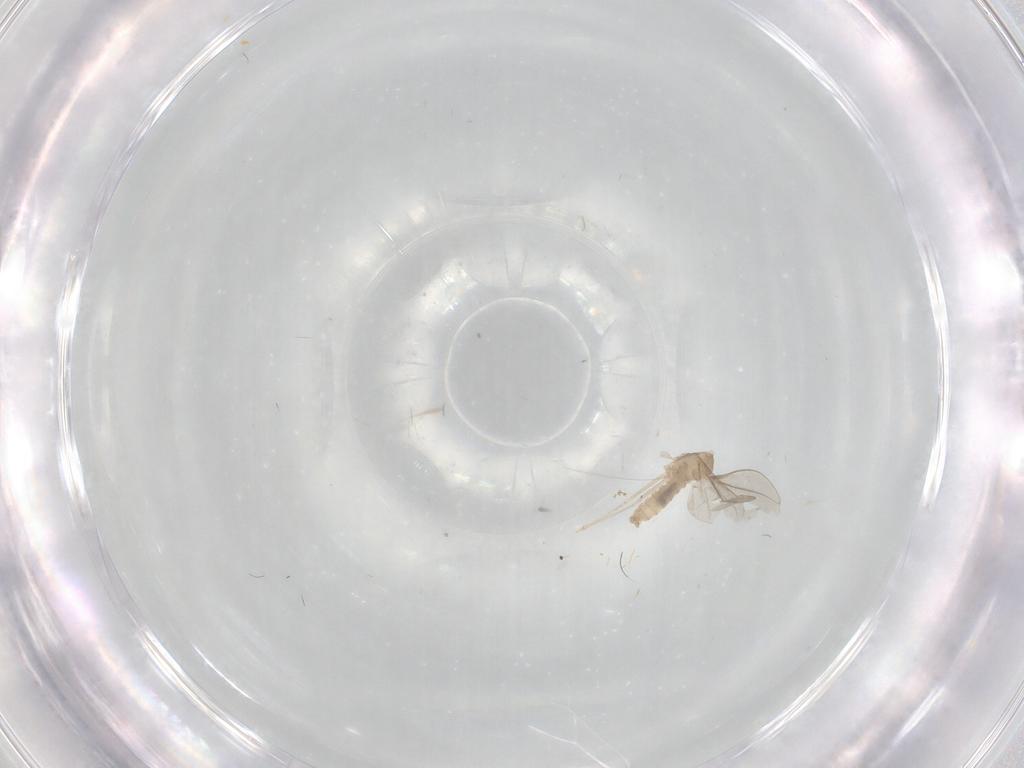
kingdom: Animalia
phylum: Arthropoda
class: Insecta
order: Diptera
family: Cecidomyiidae
